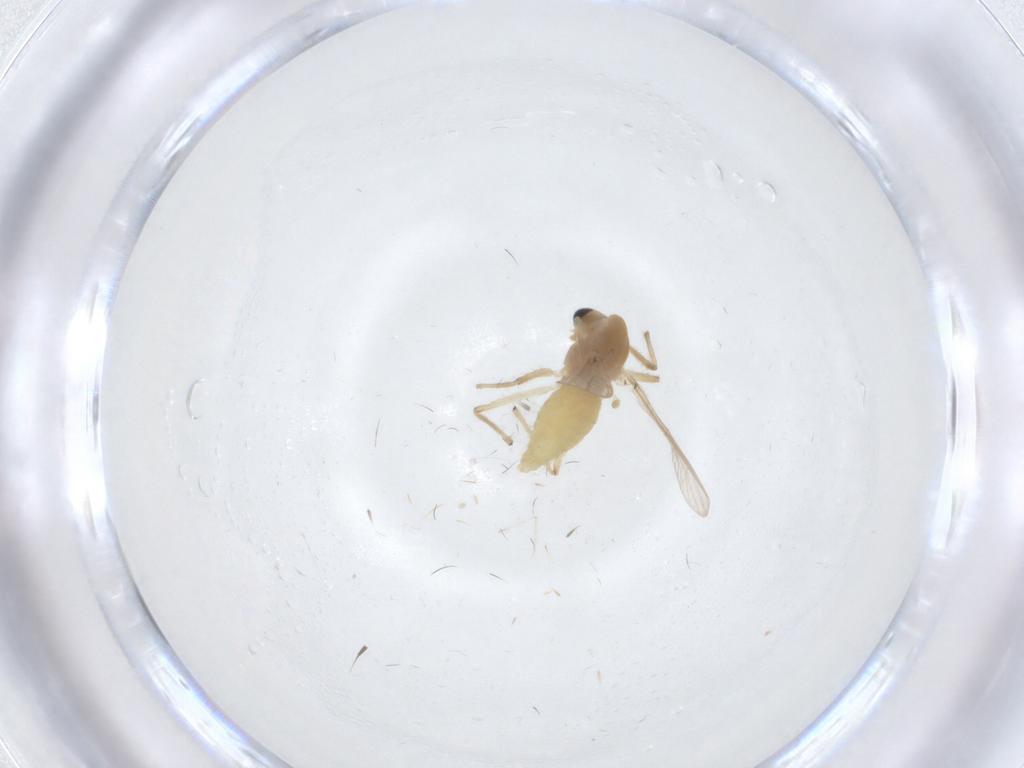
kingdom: Animalia
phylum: Arthropoda
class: Insecta
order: Diptera
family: Chironomidae
